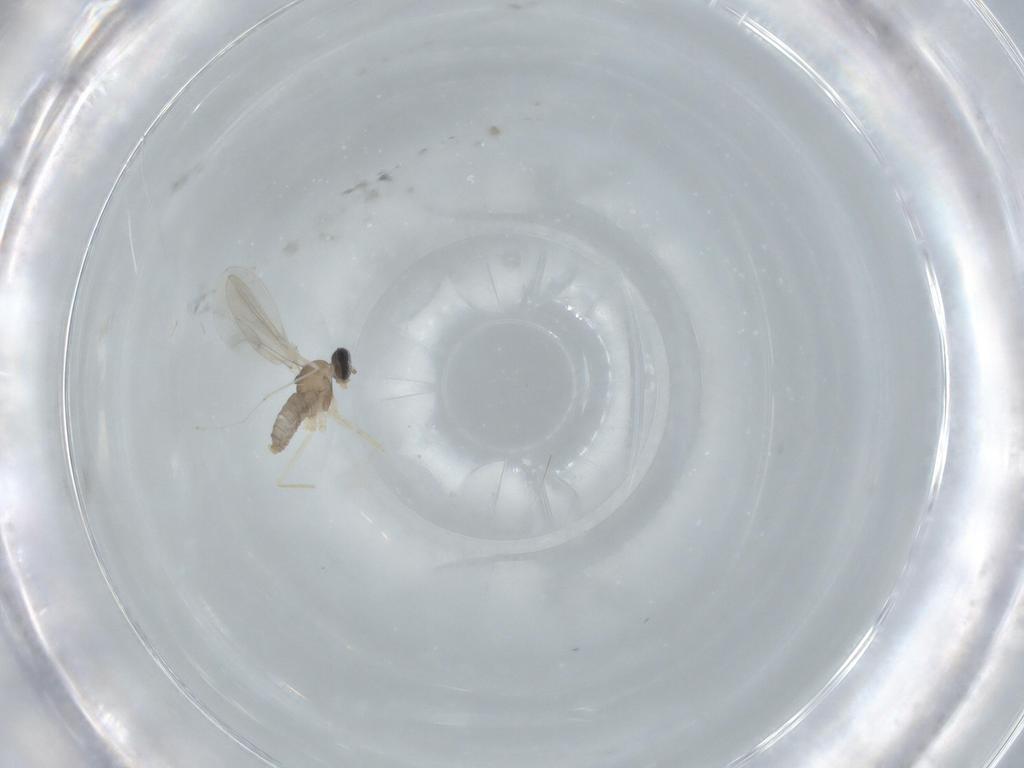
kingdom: Animalia
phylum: Arthropoda
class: Insecta
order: Diptera
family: Cecidomyiidae
